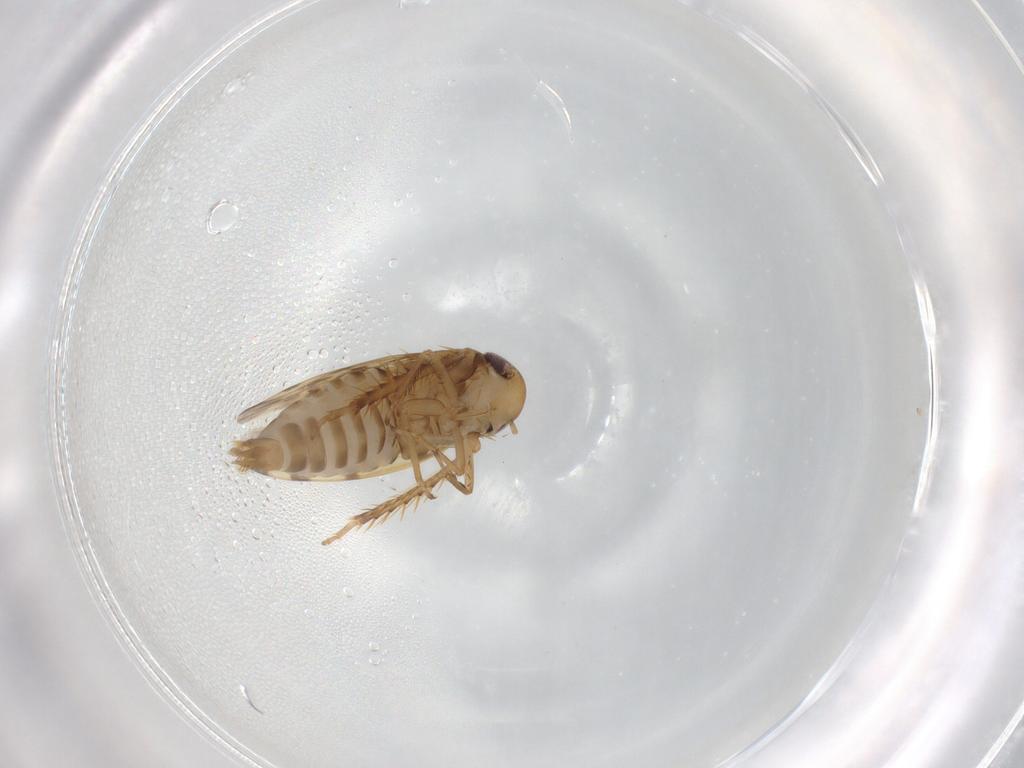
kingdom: Animalia
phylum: Arthropoda
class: Insecta
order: Hemiptera
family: Cicadellidae
